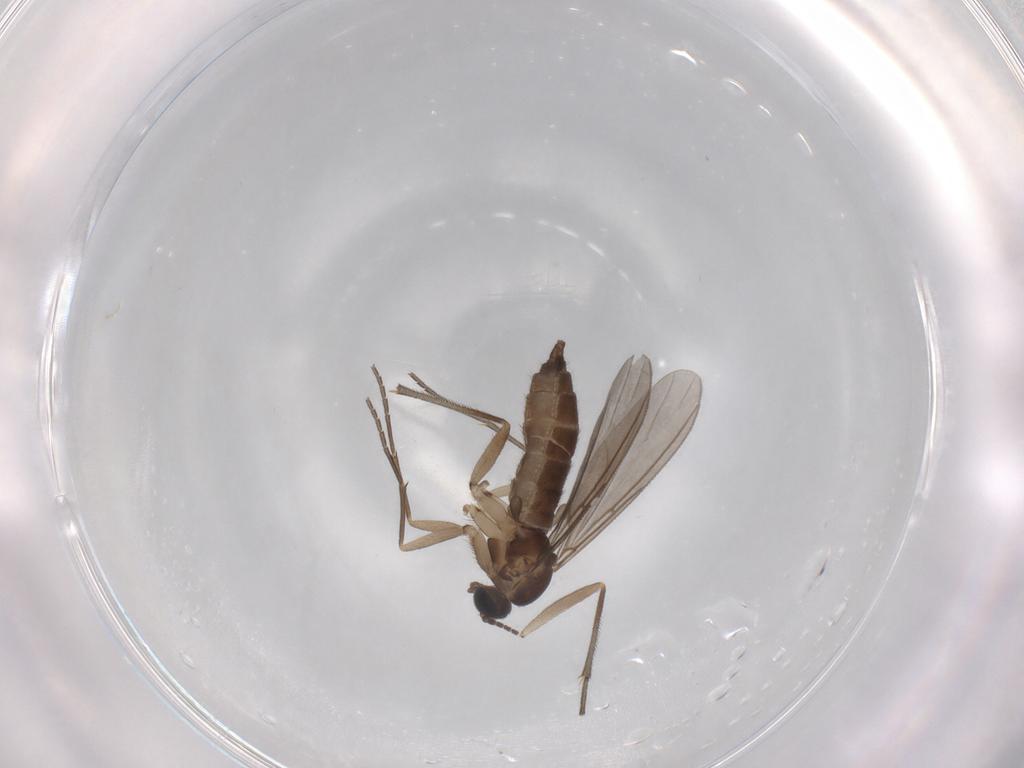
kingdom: Animalia
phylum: Arthropoda
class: Insecta
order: Diptera
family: Sciaridae
